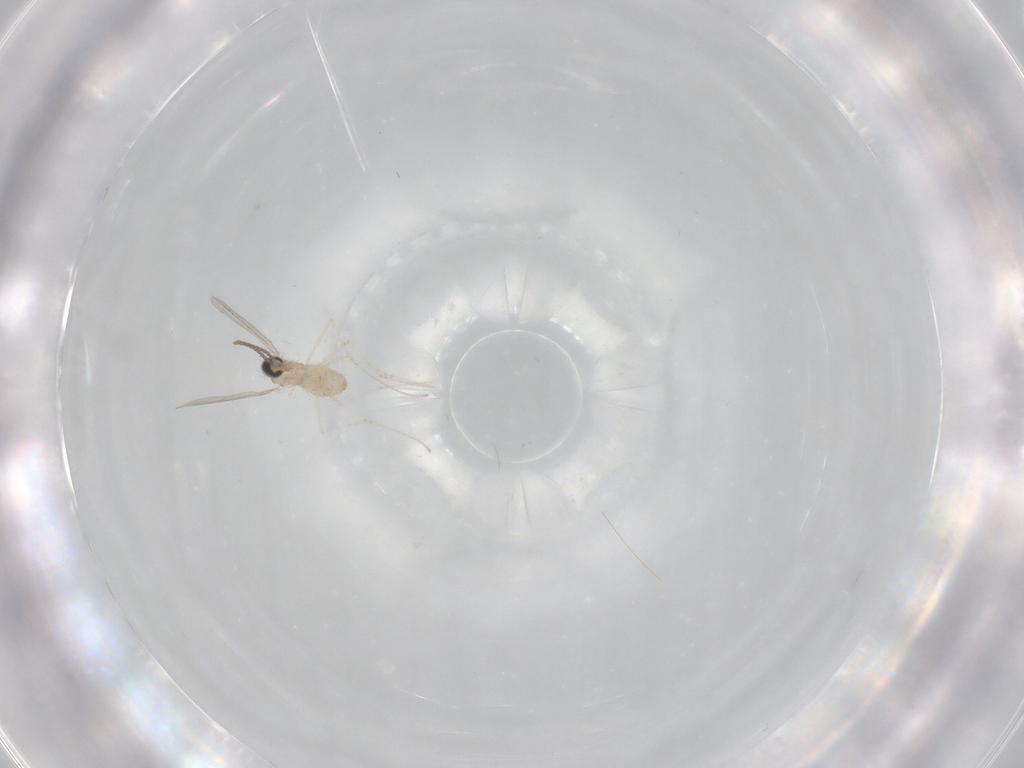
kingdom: Animalia
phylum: Arthropoda
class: Insecta
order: Diptera
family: Cecidomyiidae
